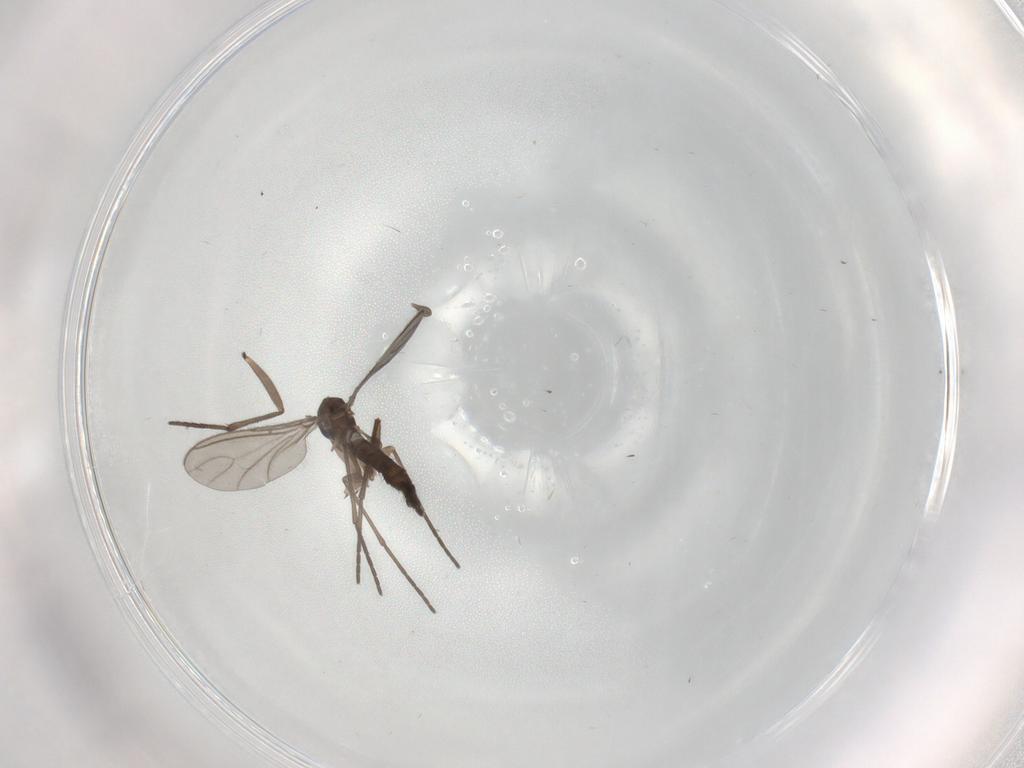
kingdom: Animalia
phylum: Arthropoda
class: Insecta
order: Diptera
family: Sciaridae
